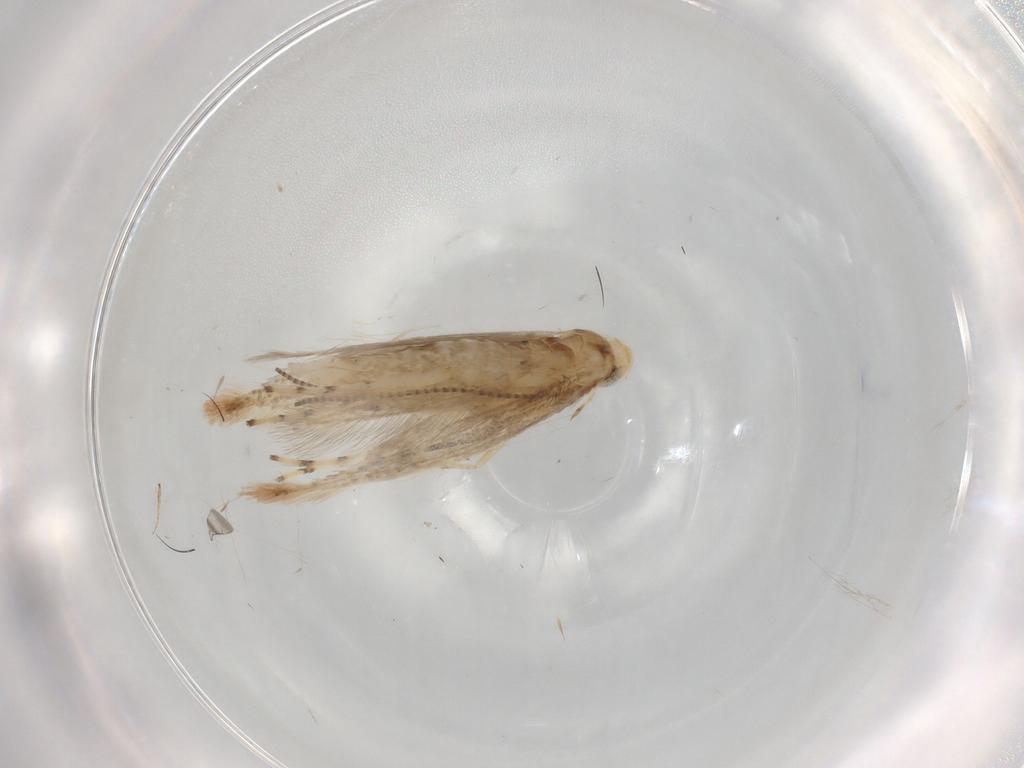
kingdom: Animalia
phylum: Arthropoda
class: Insecta
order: Lepidoptera
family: Gracillariidae
